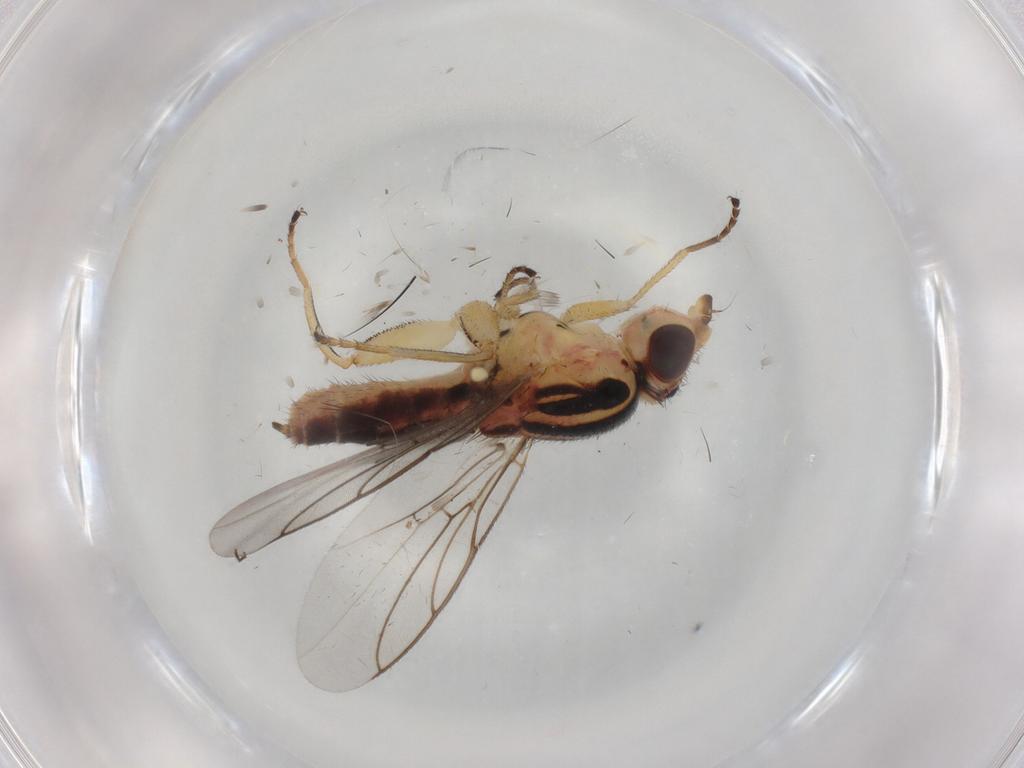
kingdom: Animalia
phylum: Arthropoda
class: Insecta
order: Diptera
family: Chloropidae
